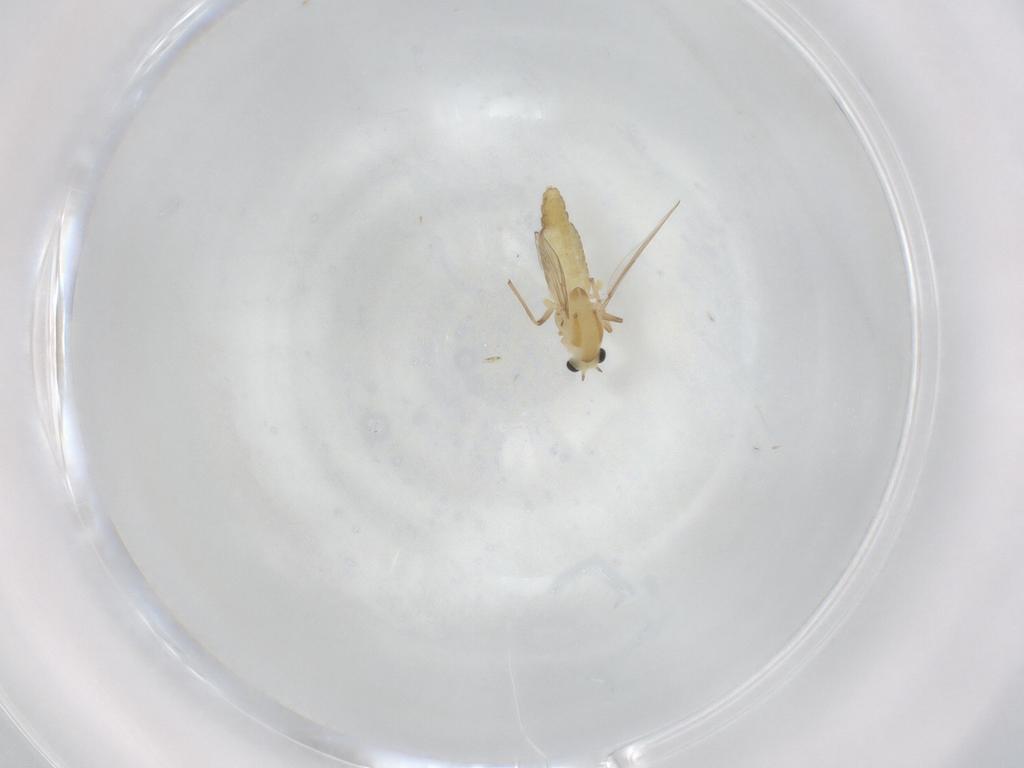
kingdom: Animalia
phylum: Arthropoda
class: Insecta
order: Diptera
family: Chironomidae
